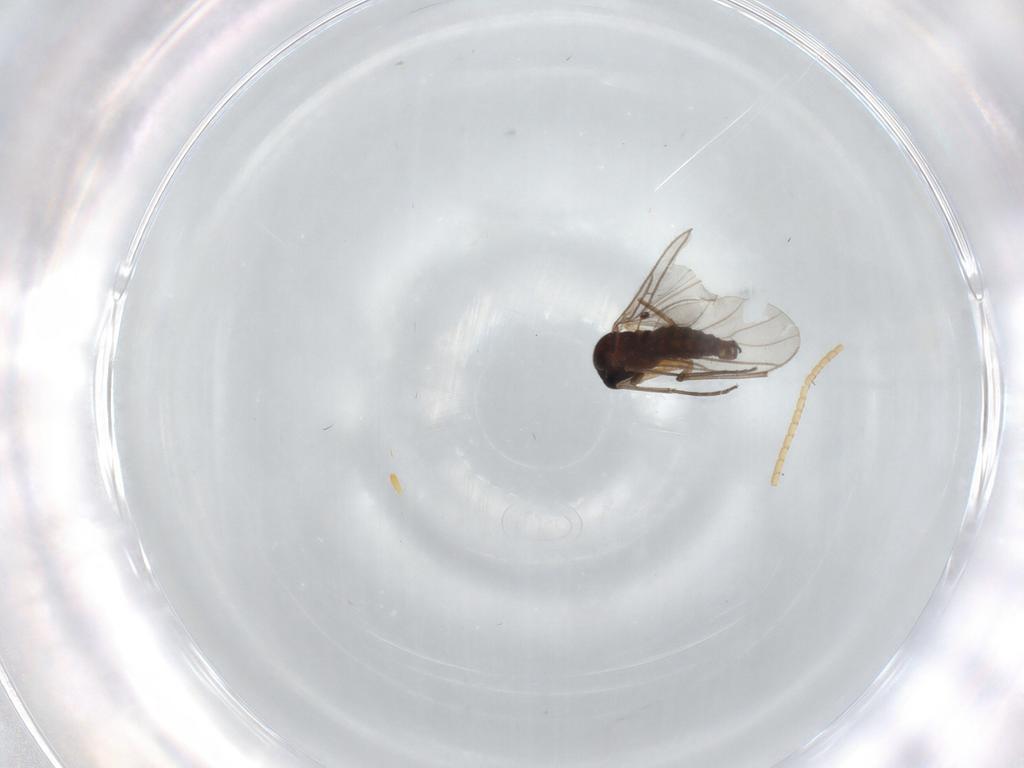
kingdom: Animalia
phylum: Arthropoda
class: Insecta
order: Diptera
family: Sciaridae
